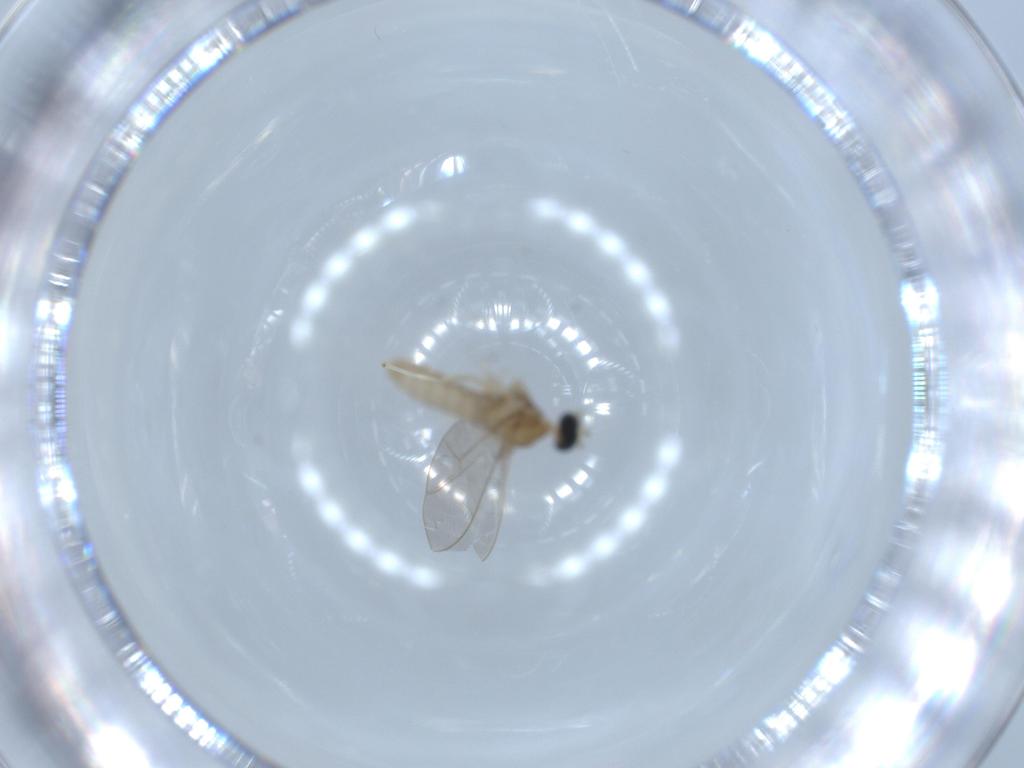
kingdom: Animalia
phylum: Arthropoda
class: Insecta
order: Diptera
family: Cecidomyiidae
